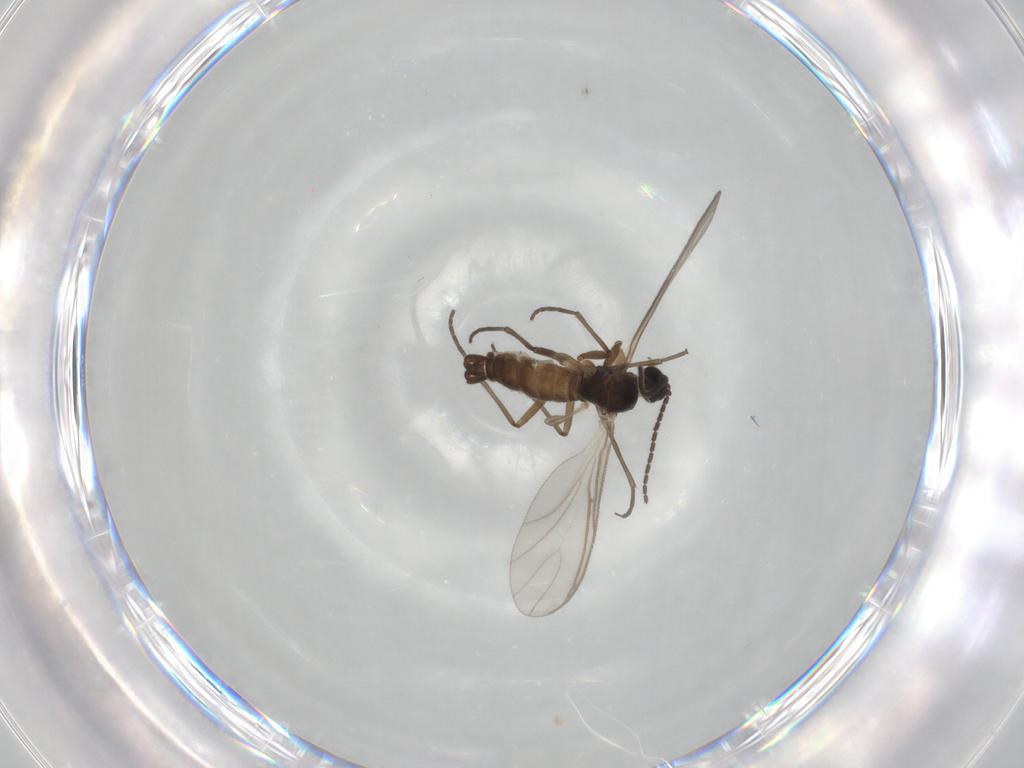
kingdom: Animalia
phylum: Arthropoda
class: Insecta
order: Diptera
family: Sciaridae
